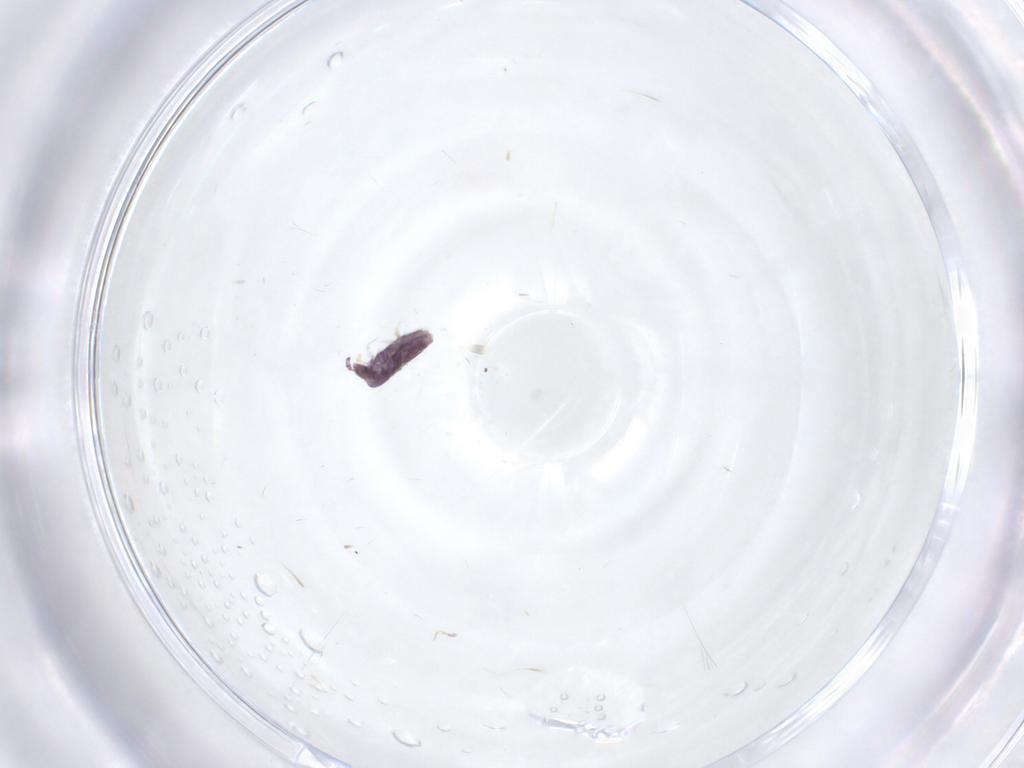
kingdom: Animalia
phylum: Arthropoda
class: Collembola
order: Entomobryomorpha
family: Entomobryidae
